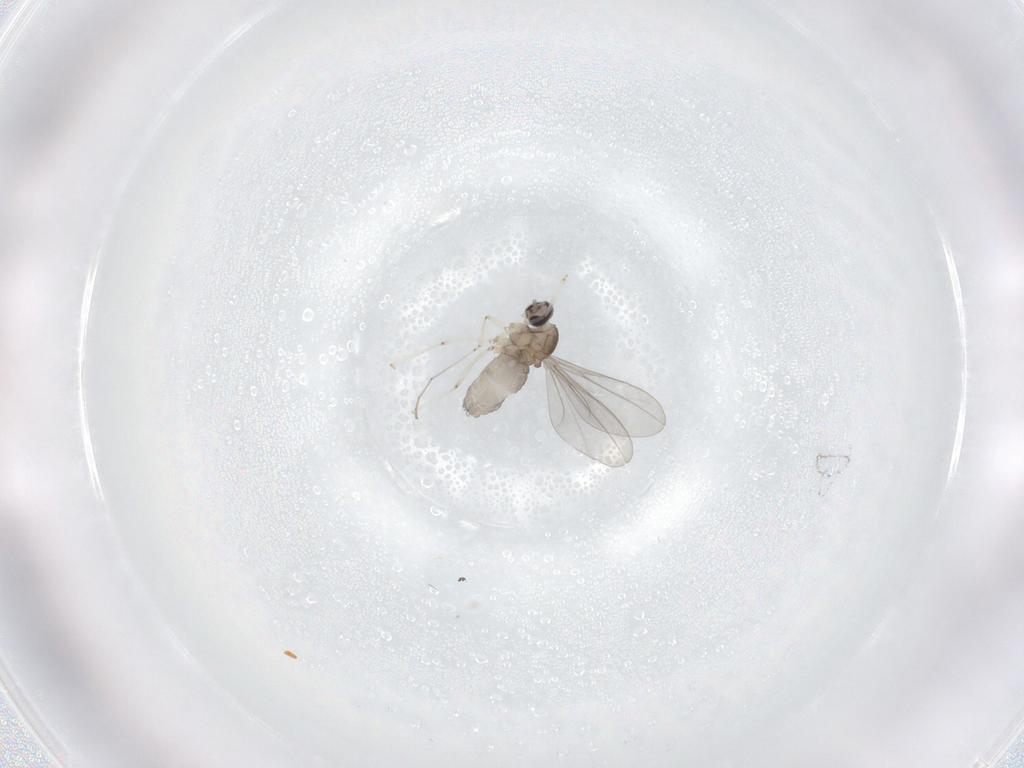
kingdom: Animalia
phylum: Arthropoda
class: Insecta
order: Diptera
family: Cecidomyiidae
